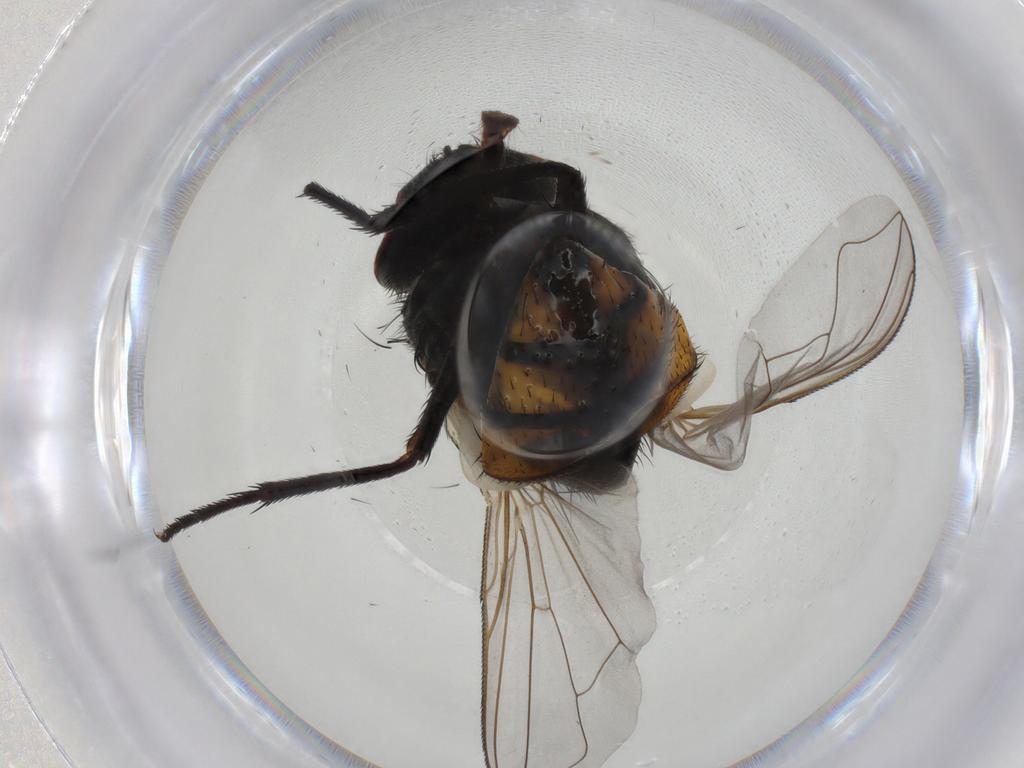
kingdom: Animalia
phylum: Arthropoda
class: Insecta
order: Diptera
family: Muscidae
